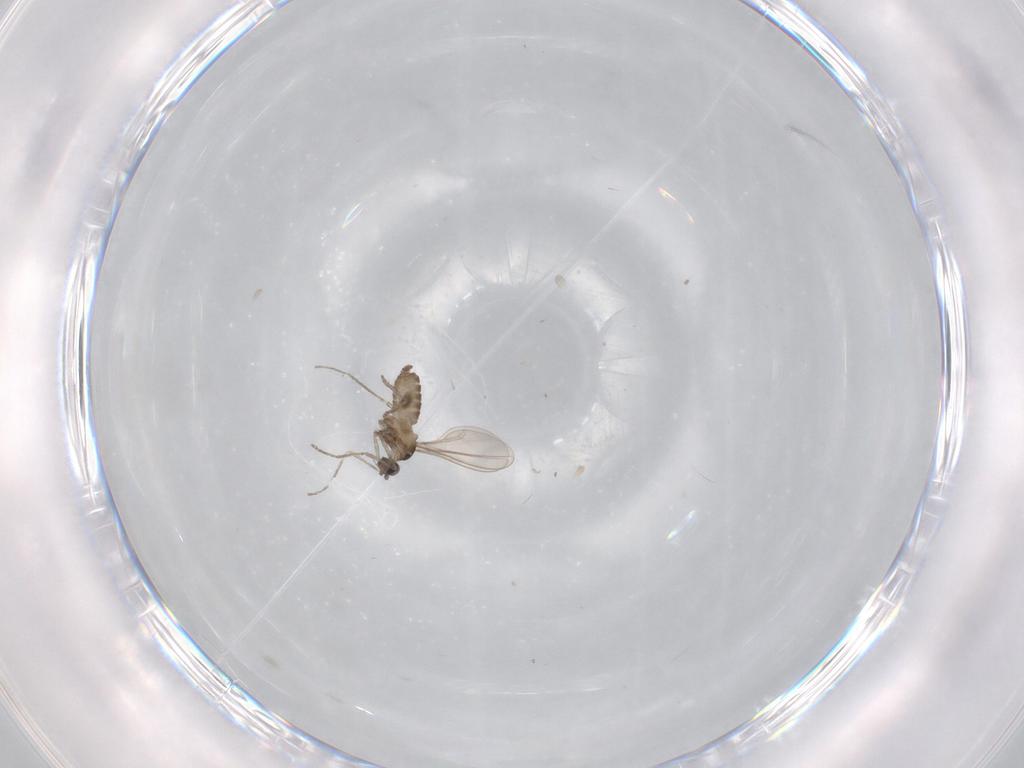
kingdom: Animalia
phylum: Arthropoda
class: Insecta
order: Diptera
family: Cecidomyiidae
